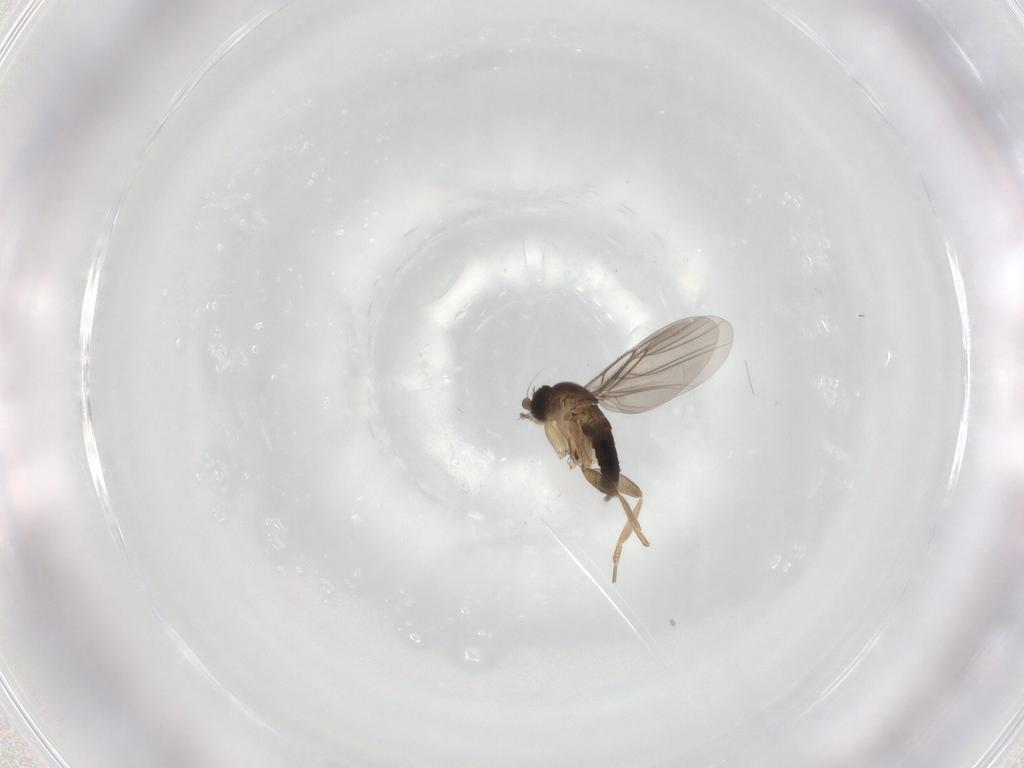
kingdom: Animalia
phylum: Arthropoda
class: Insecta
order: Diptera
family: Phoridae
